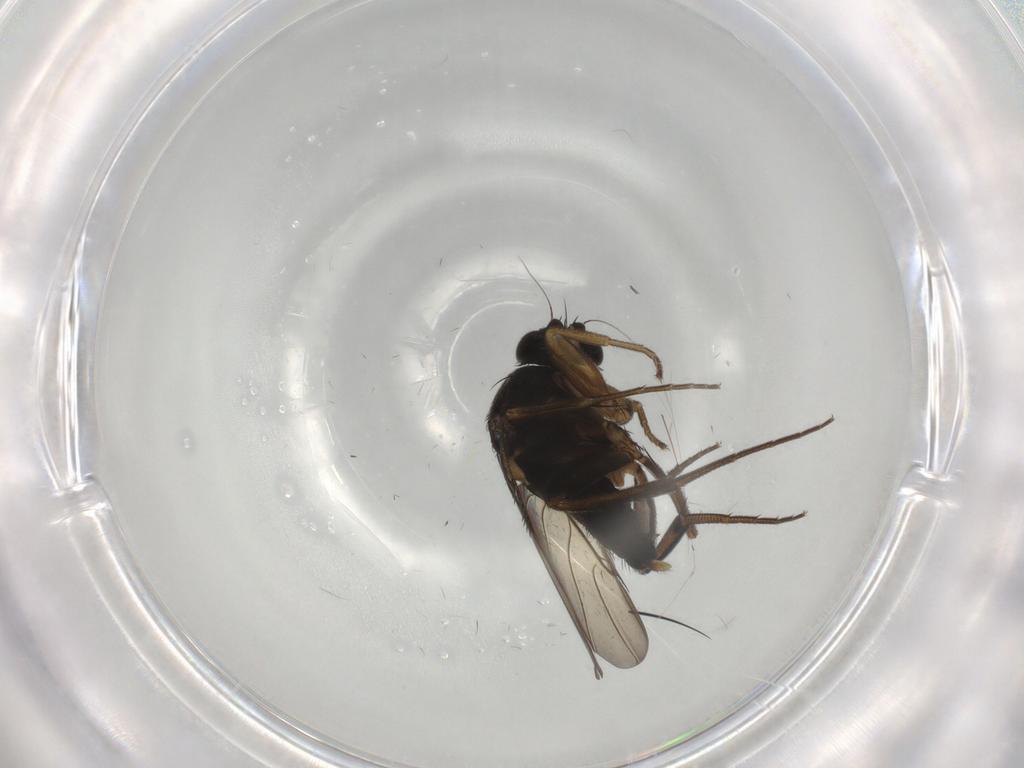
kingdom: Animalia
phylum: Arthropoda
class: Insecta
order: Diptera
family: Phoridae
